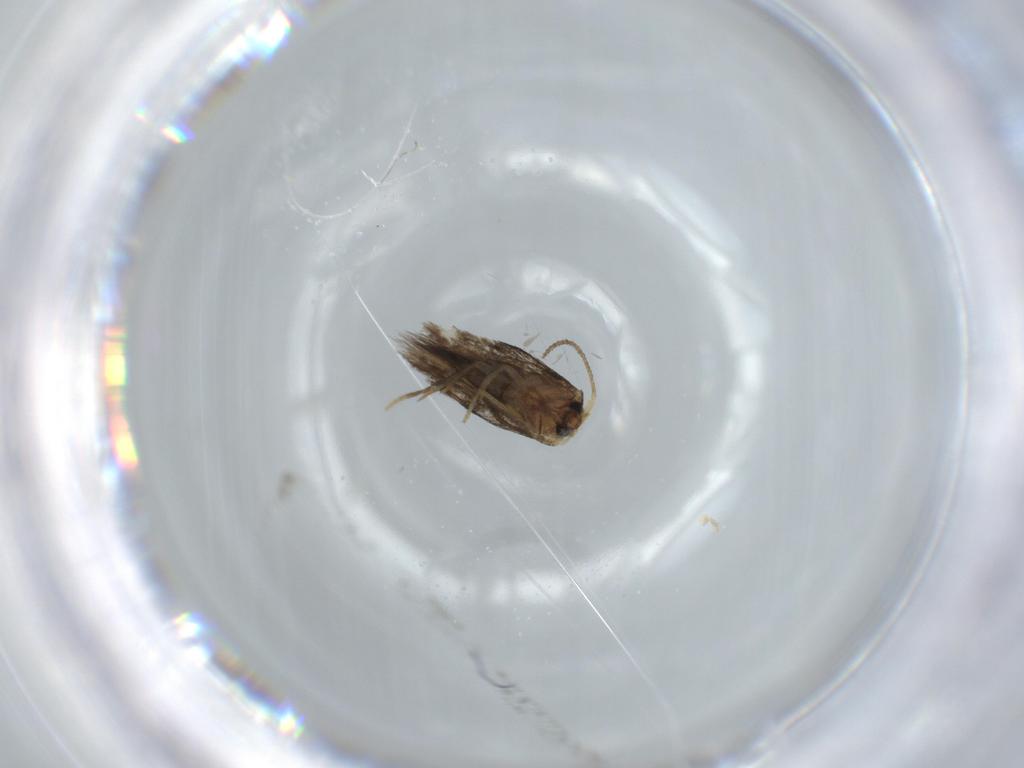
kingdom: Animalia
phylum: Arthropoda
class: Insecta
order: Lepidoptera
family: Nepticulidae
